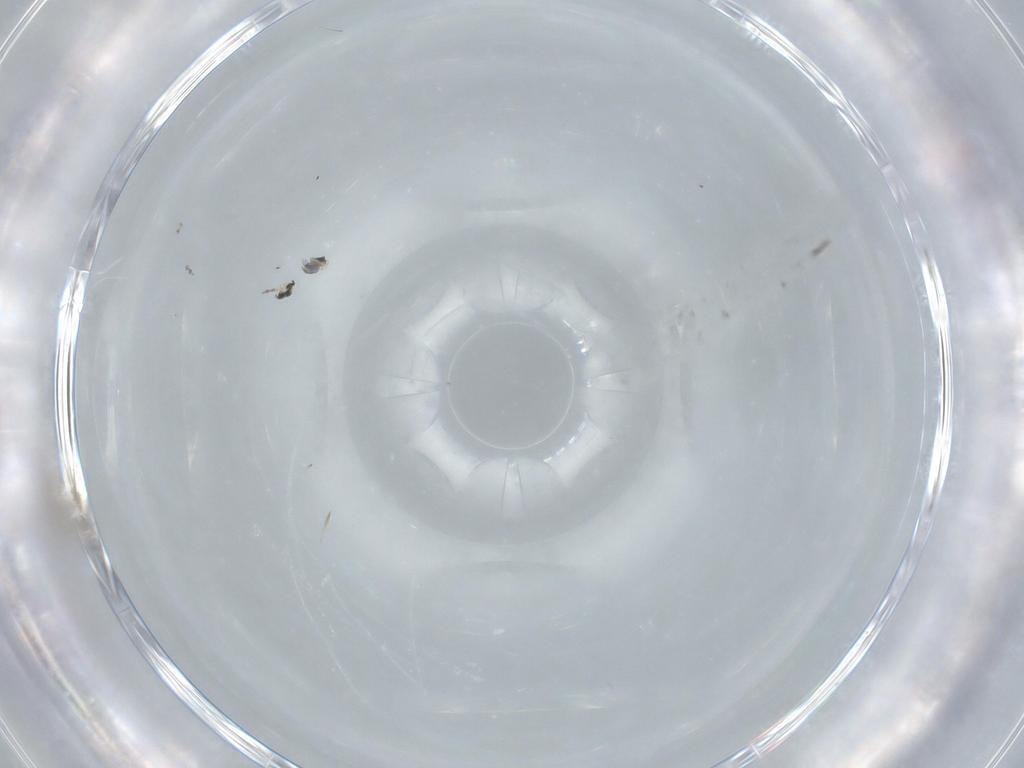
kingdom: Animalia
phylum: Arthropoda
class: Insecta
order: Diptera
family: Cecidomyiidae
